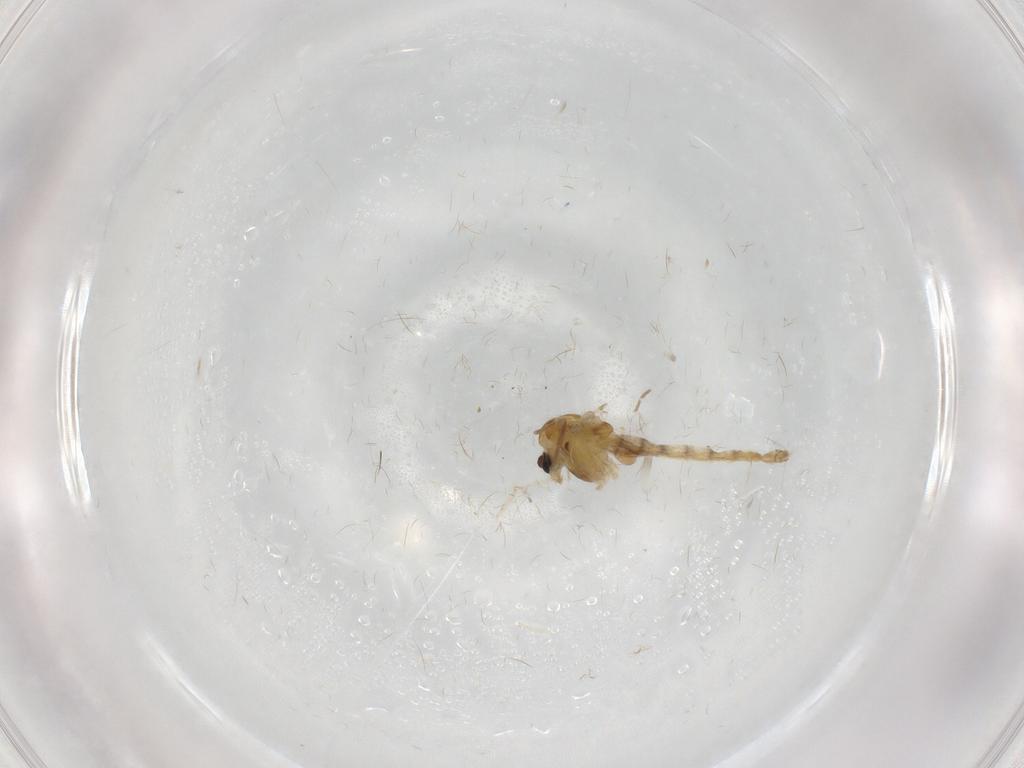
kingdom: Animalia
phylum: Arthropoda
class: Insecta
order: Diptera
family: Chironomidae
